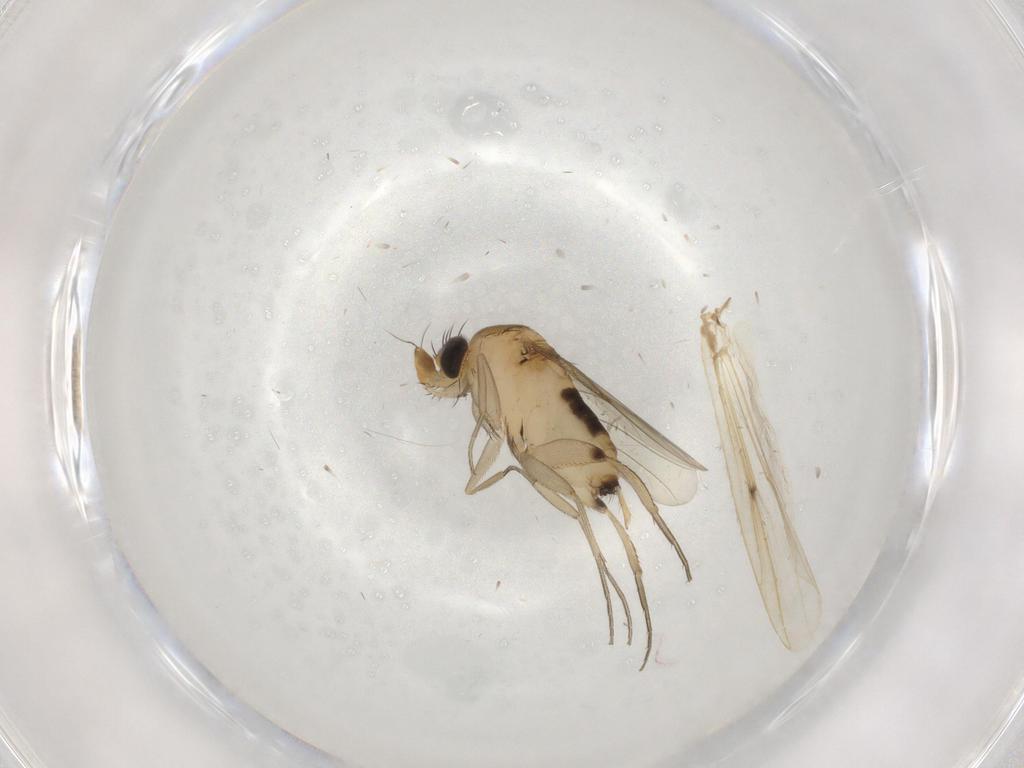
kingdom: Animalia
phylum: Arthropoda
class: Insecta
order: Diptera
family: Phoridae
